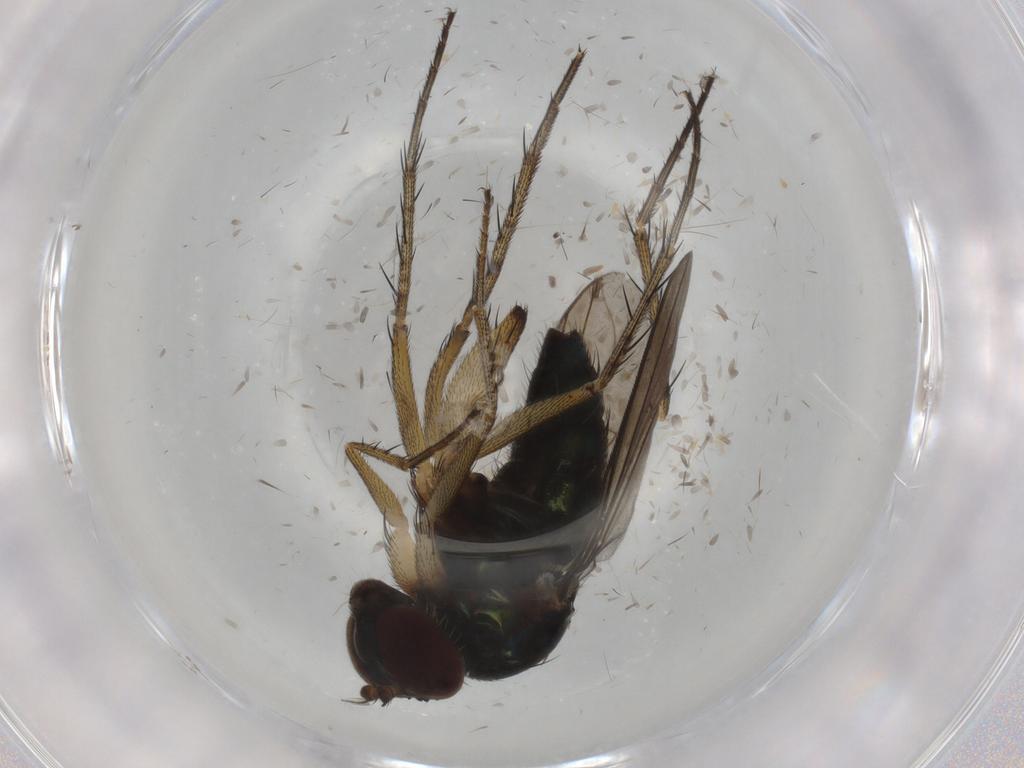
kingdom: Animalia
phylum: Arthropoda
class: Insecta
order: Diptera
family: Dolichopodidae
